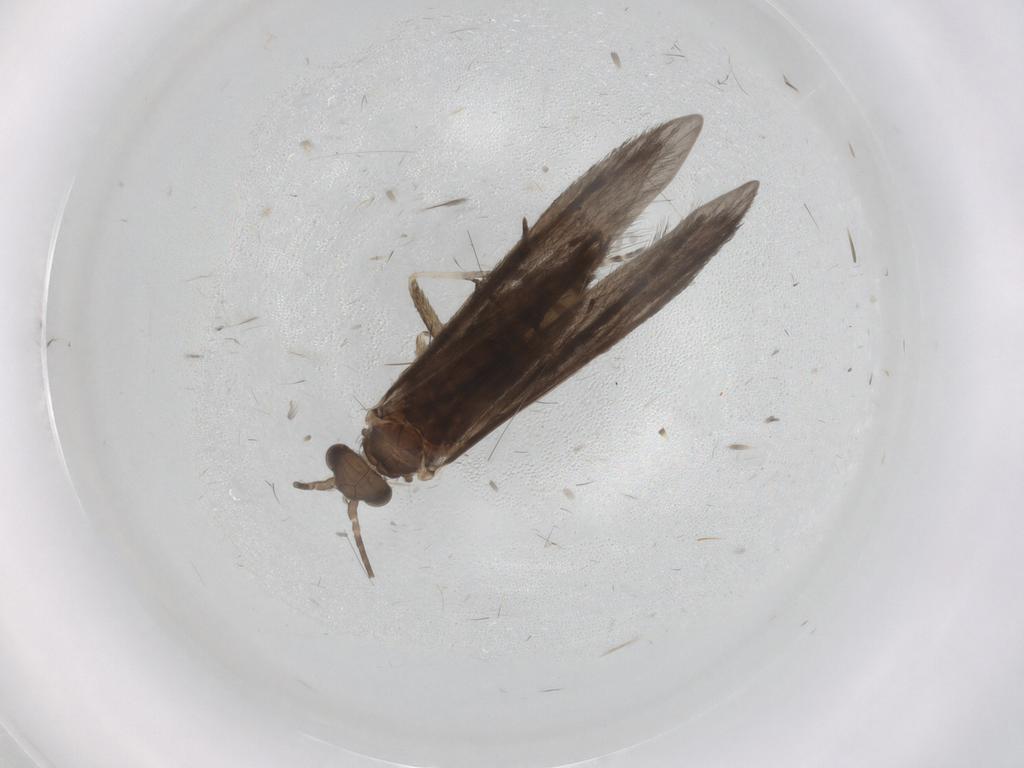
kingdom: Animalia
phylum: Arthropoda
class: Insecta
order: Trichoptera
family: Xiphocentronidae
